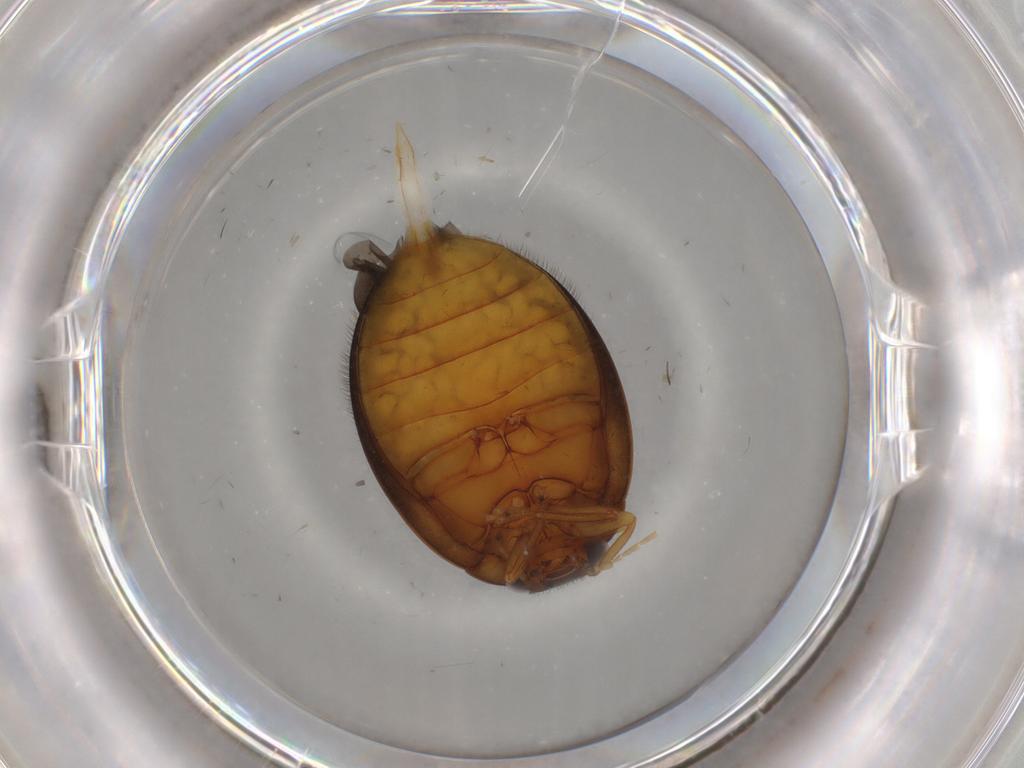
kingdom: Animalia
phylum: Arthropoda
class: Insecta
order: Coleoptera
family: Scirtidae
